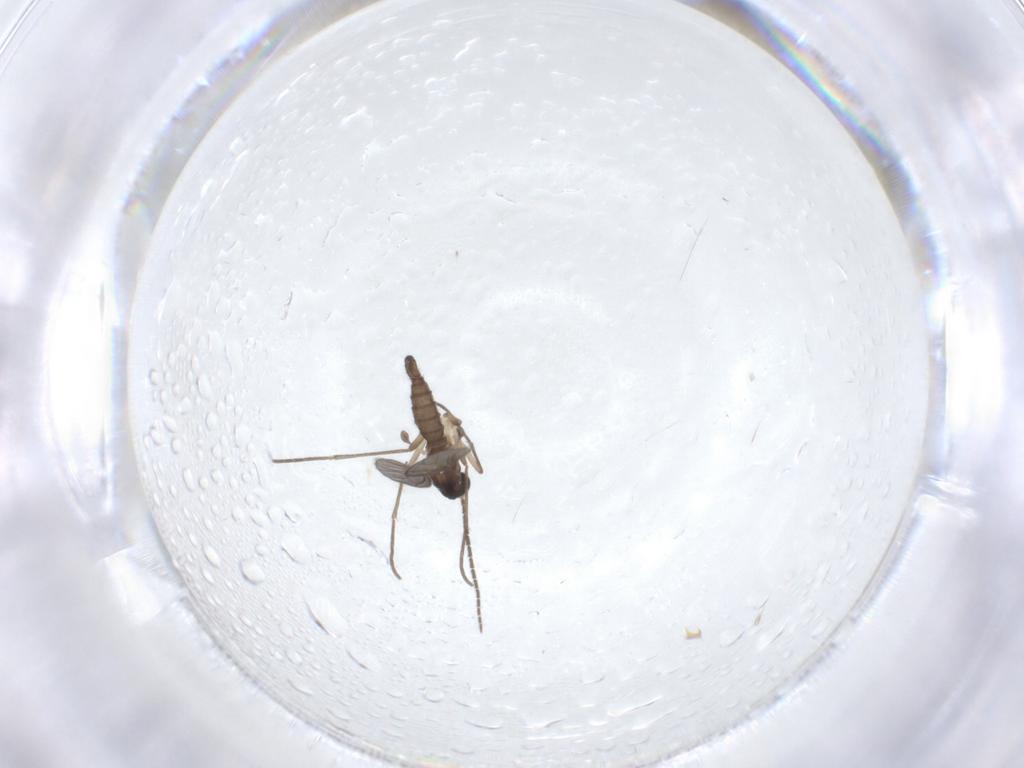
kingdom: Animalia
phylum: Arthropoda
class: Insecta
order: Diptera
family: Sciaridae
